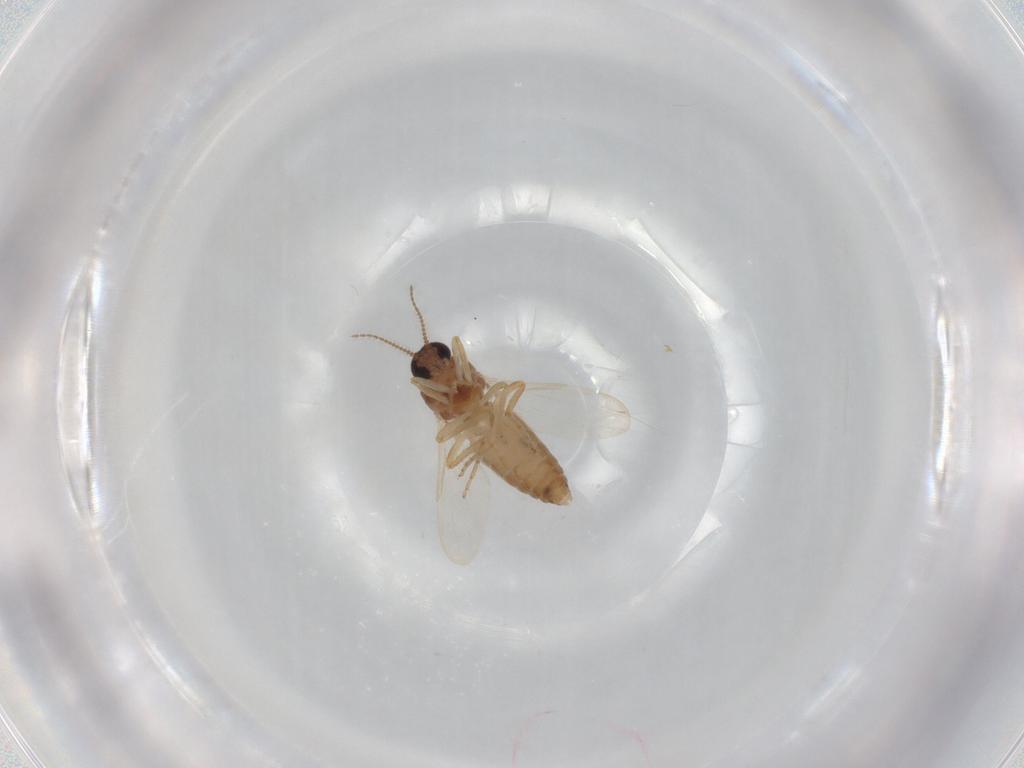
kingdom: Animalia
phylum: Arthropoda
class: Insecta
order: Diptera
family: Ceratopogonidae
